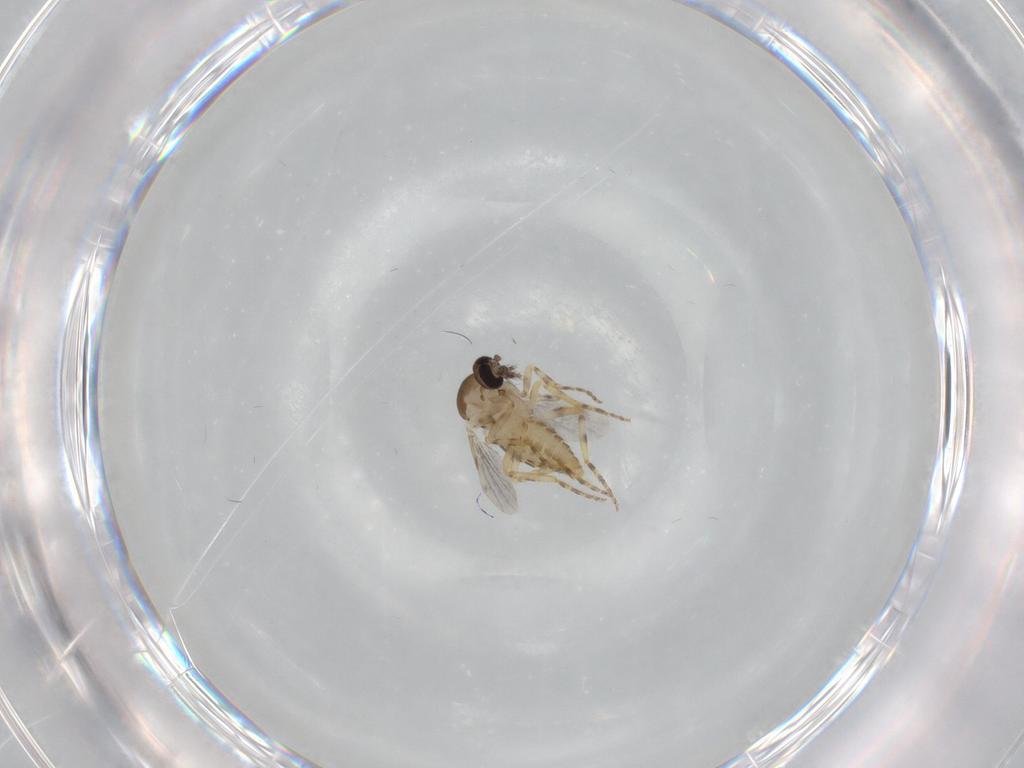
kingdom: Animalia
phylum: Arthropoda
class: Insecta
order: Diptera
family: Ceratopogonidae
